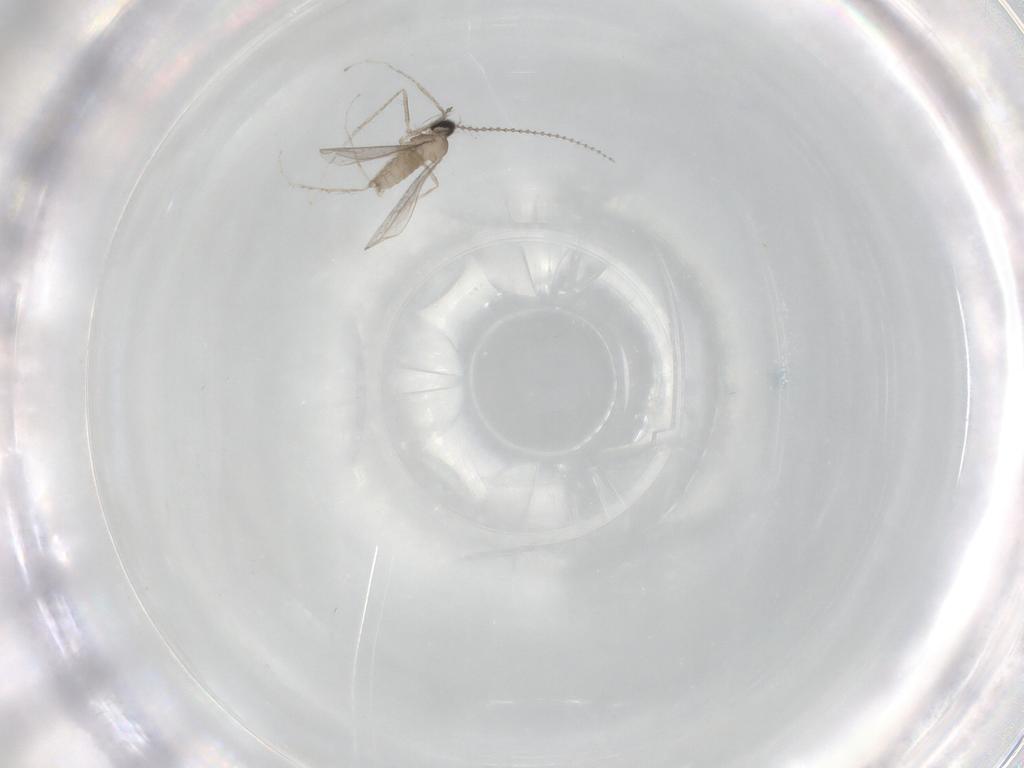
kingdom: Animalia
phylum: Arthropoda
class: Insecta
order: Diptera
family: Cecidomyiidae
